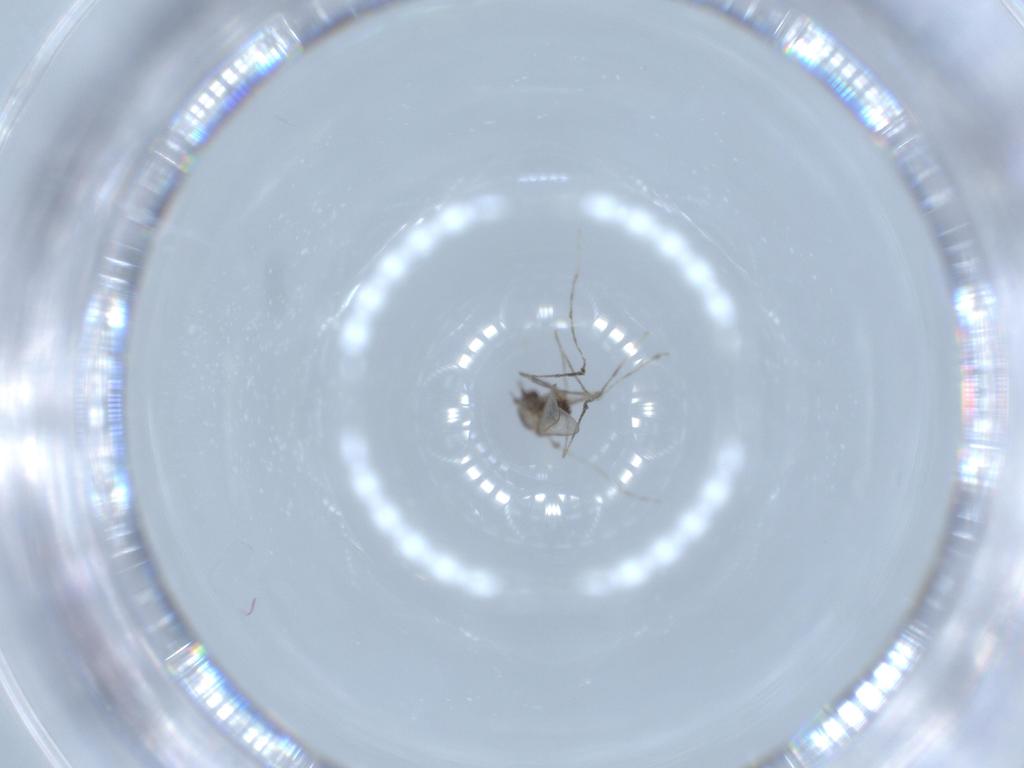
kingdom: Animalia
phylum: Arthropoda
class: Insecta
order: Diptera
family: Cecidomyiidae
